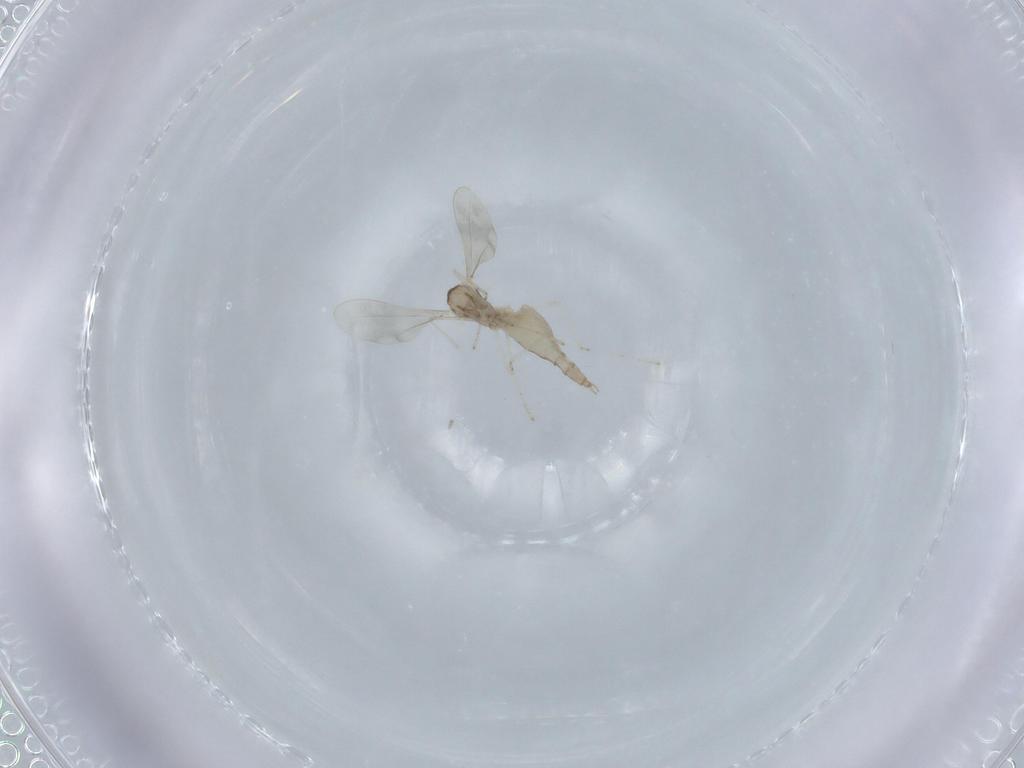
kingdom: Animalia
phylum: Arthropoda
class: Insecta
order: Diptera
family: Cecidomyiidae
